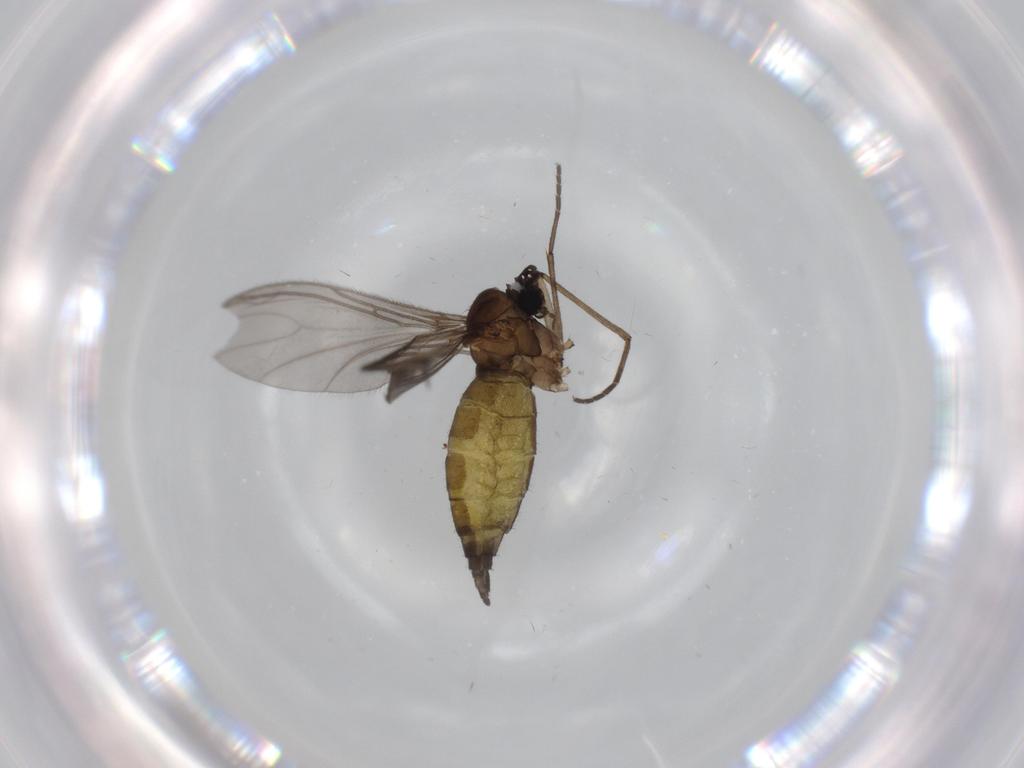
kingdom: Animalia
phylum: Arthropoda
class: Insecta
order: Diptera
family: Sciaridae
